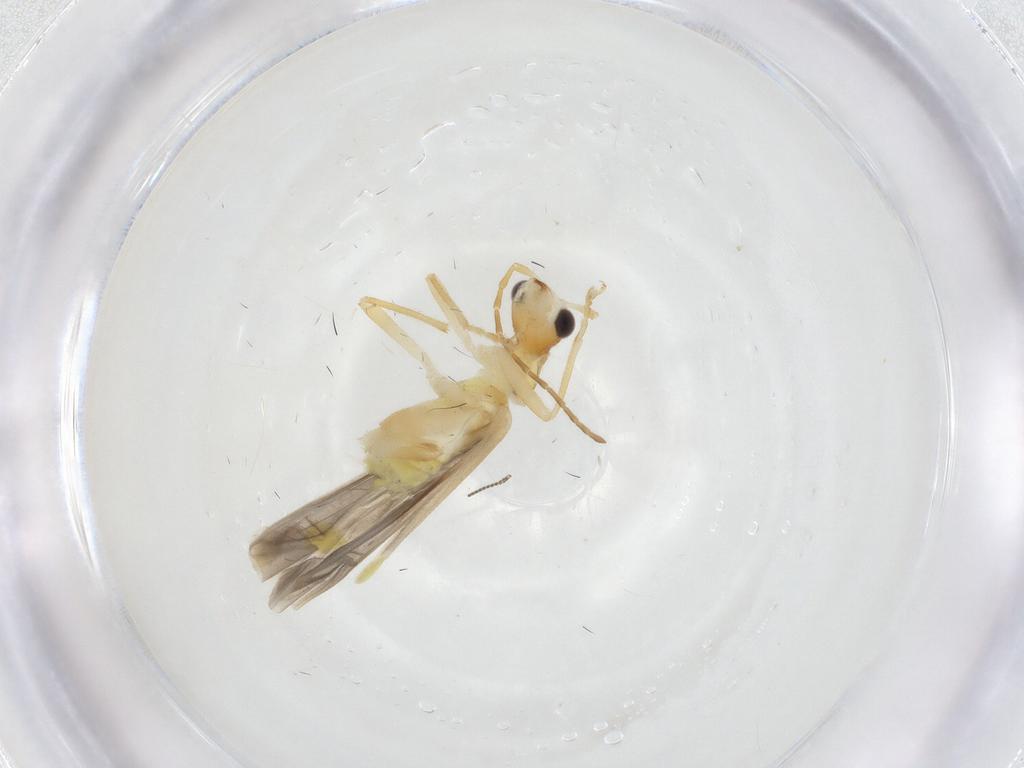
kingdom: Animalia
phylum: Arthropoda
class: Insecta
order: Coleoptera
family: Cantharidae
